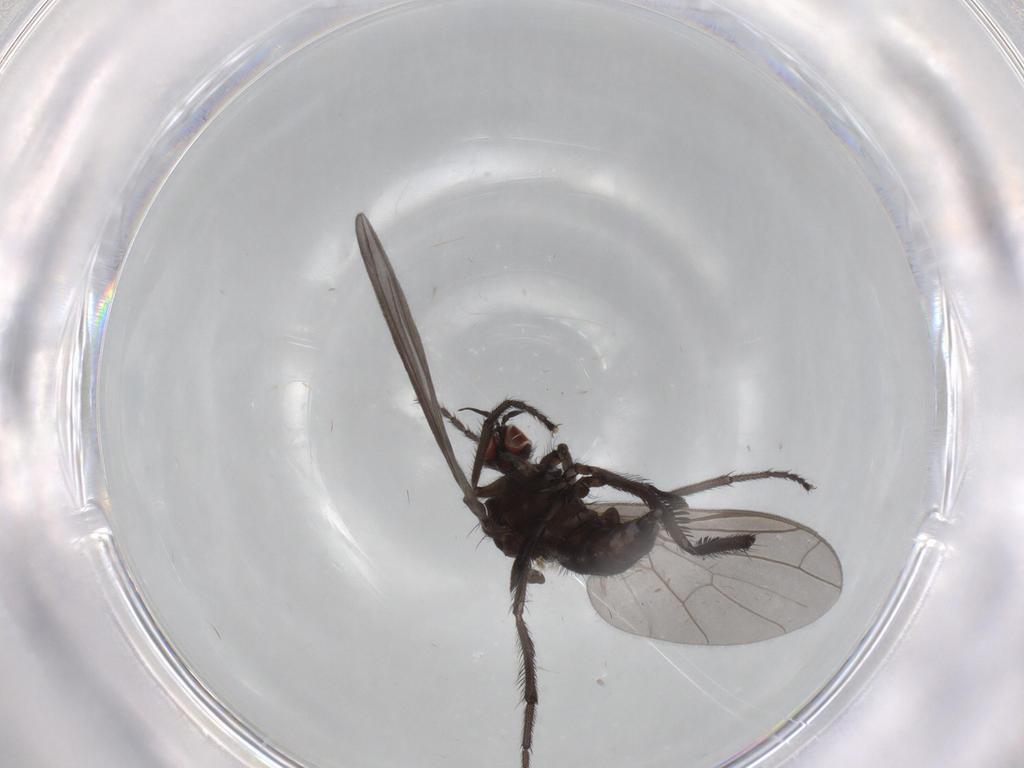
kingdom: Animalia
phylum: Arthropoda
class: Insecta
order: Diptera
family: Empididae
